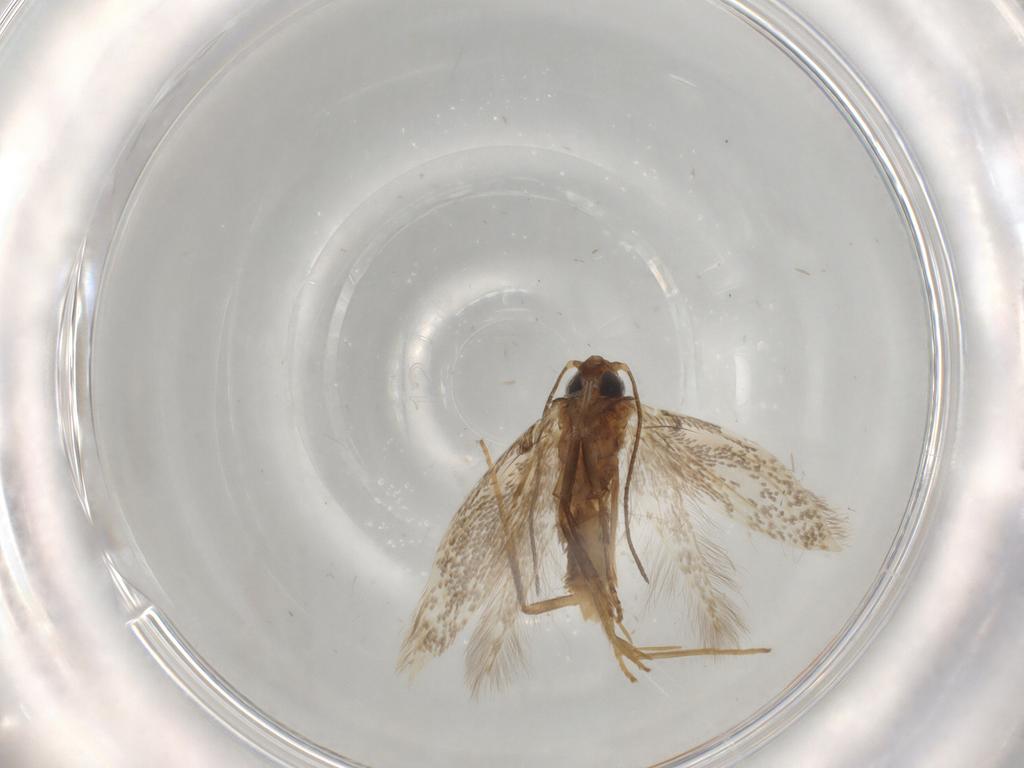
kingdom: Animalia
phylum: Arthropoda
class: Insecta
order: Lepidoptera
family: Tischeriidae
